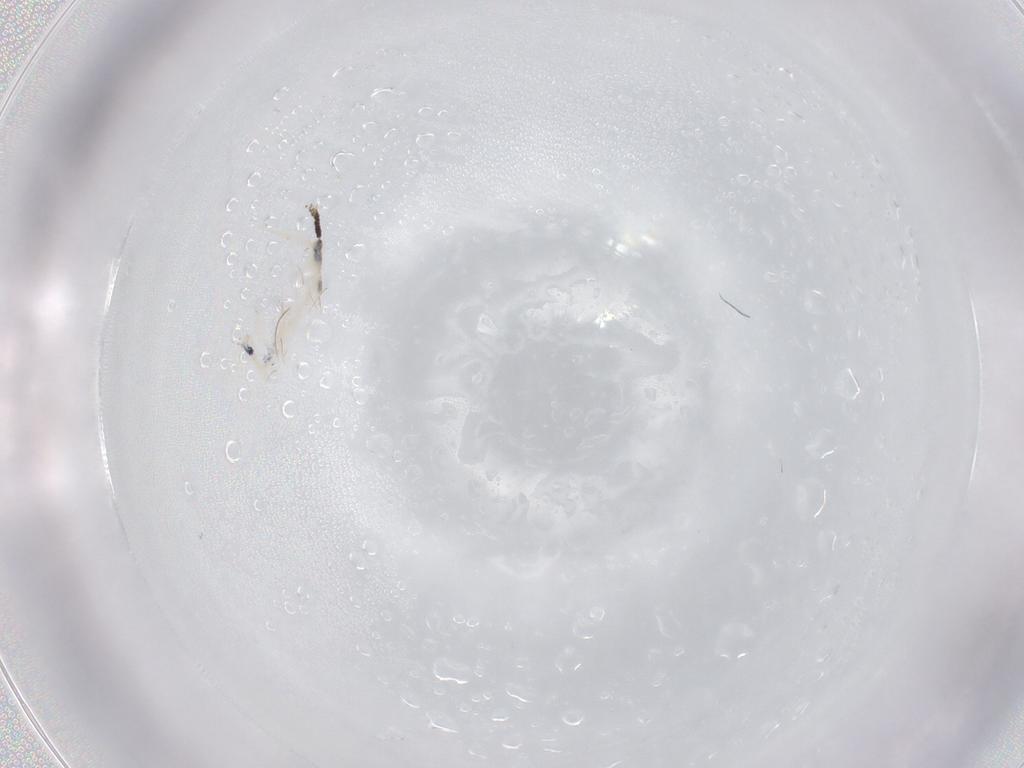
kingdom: Animalia
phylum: Arthropoda
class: Collembola
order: Entomobryomorpha
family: Entomobryidae
